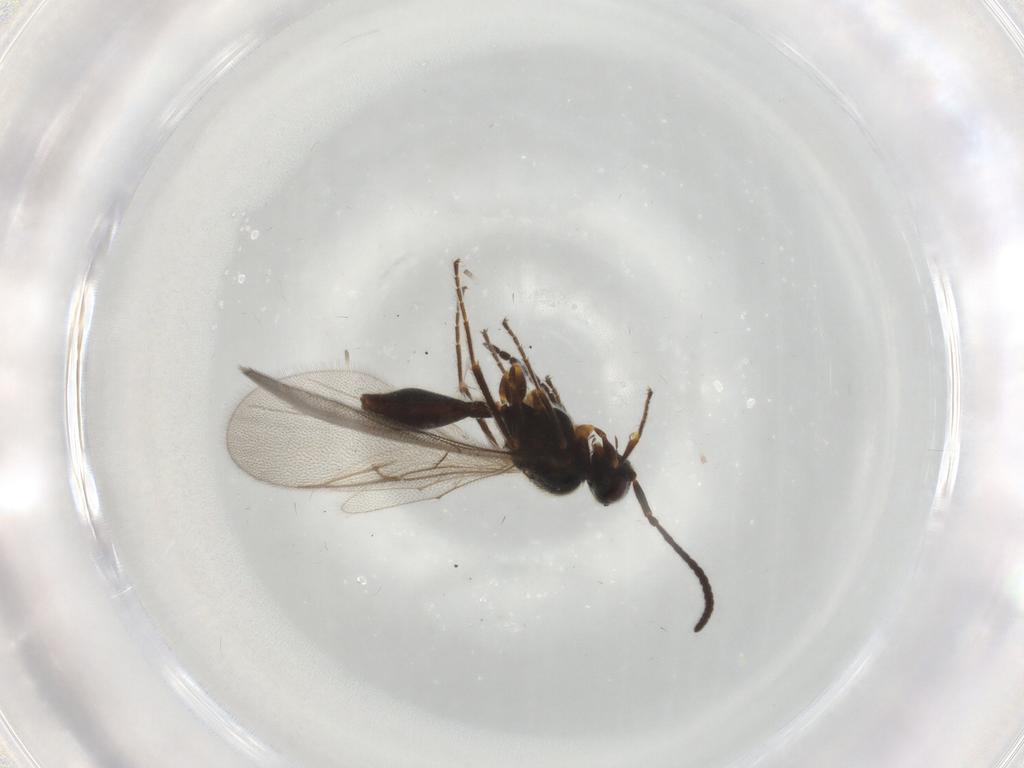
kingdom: Animalia
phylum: Arthropoda
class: Insecta
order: Hymenoptera
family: Diapriidae
